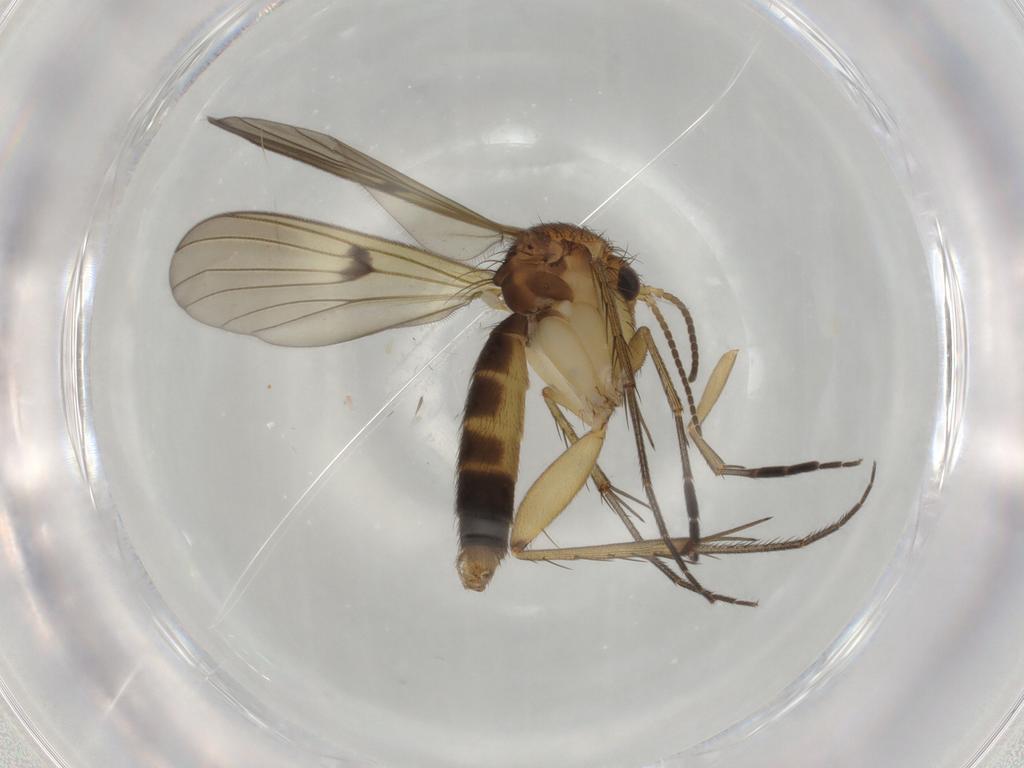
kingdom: Animalia
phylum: Arthropoda
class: Insecta
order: Diptera
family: Mycetophilidae
